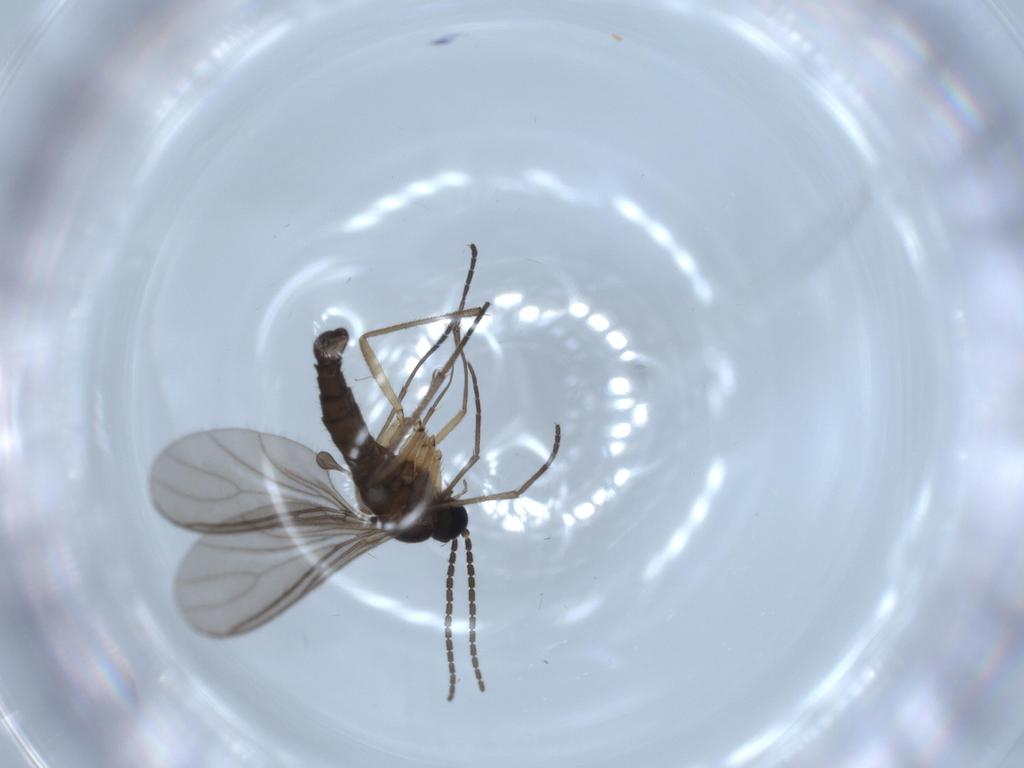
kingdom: Animalia
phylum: Arthropoda
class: Insecta
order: Diptera
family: Sciaridae
